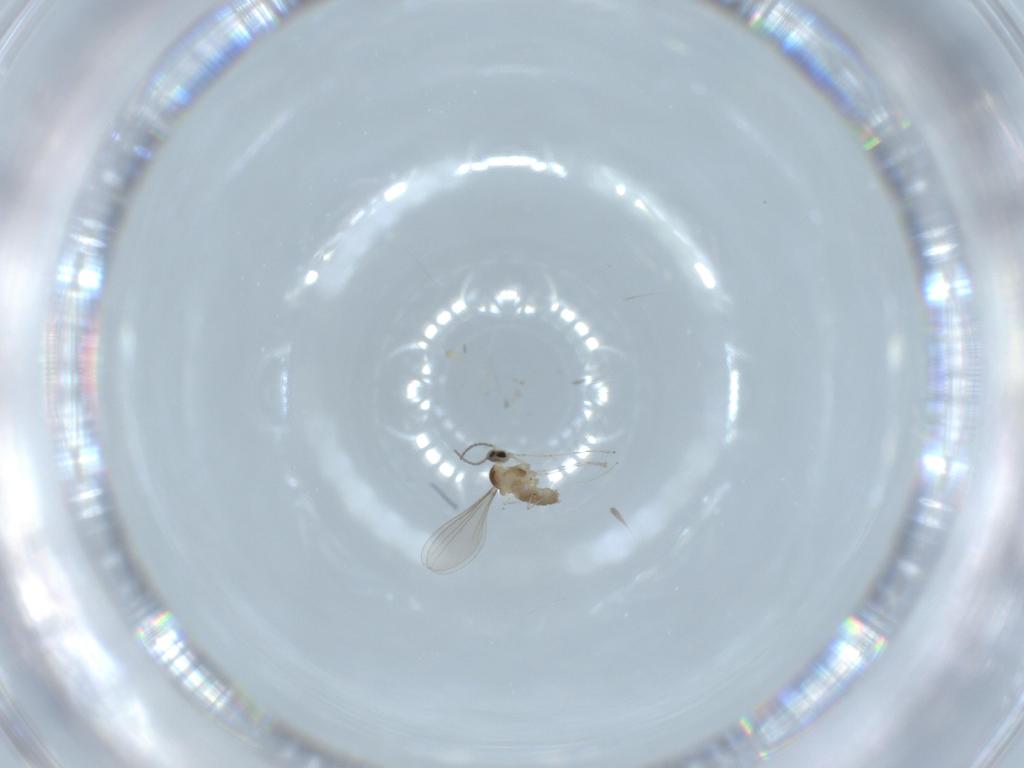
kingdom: Animalia
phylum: Arthropoda
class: Insecta
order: Diptera
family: Cecidomyiidae
